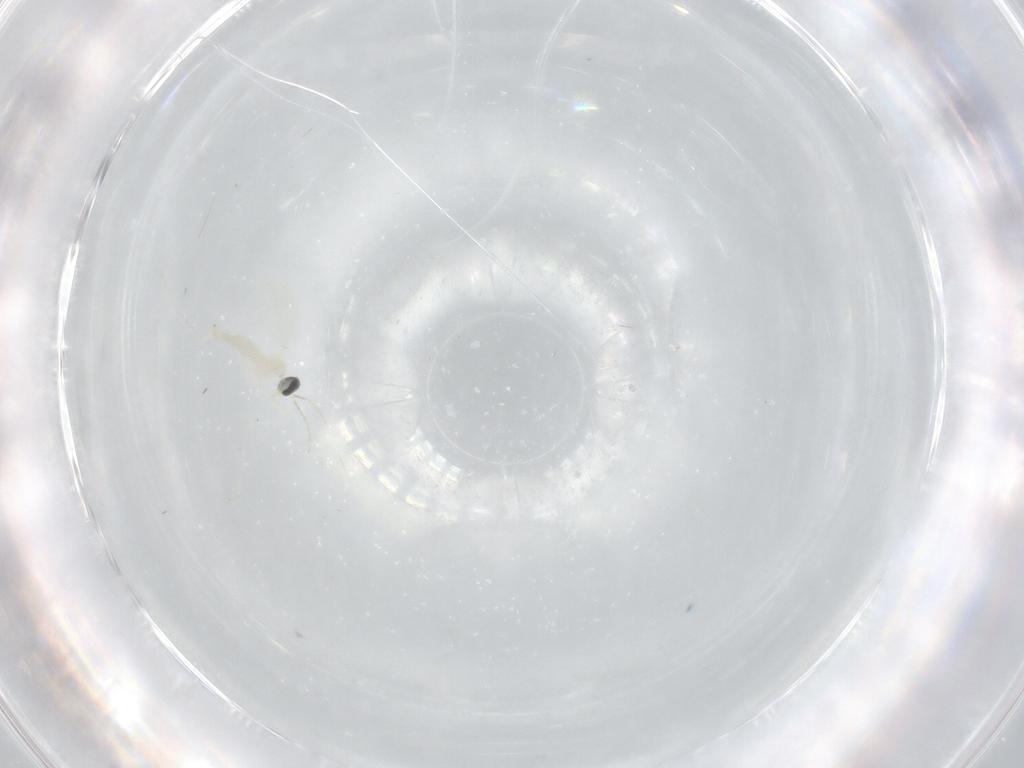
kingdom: Animalia
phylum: Arthropoda
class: Insecta
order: Diptera
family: Cecidomyiidae
